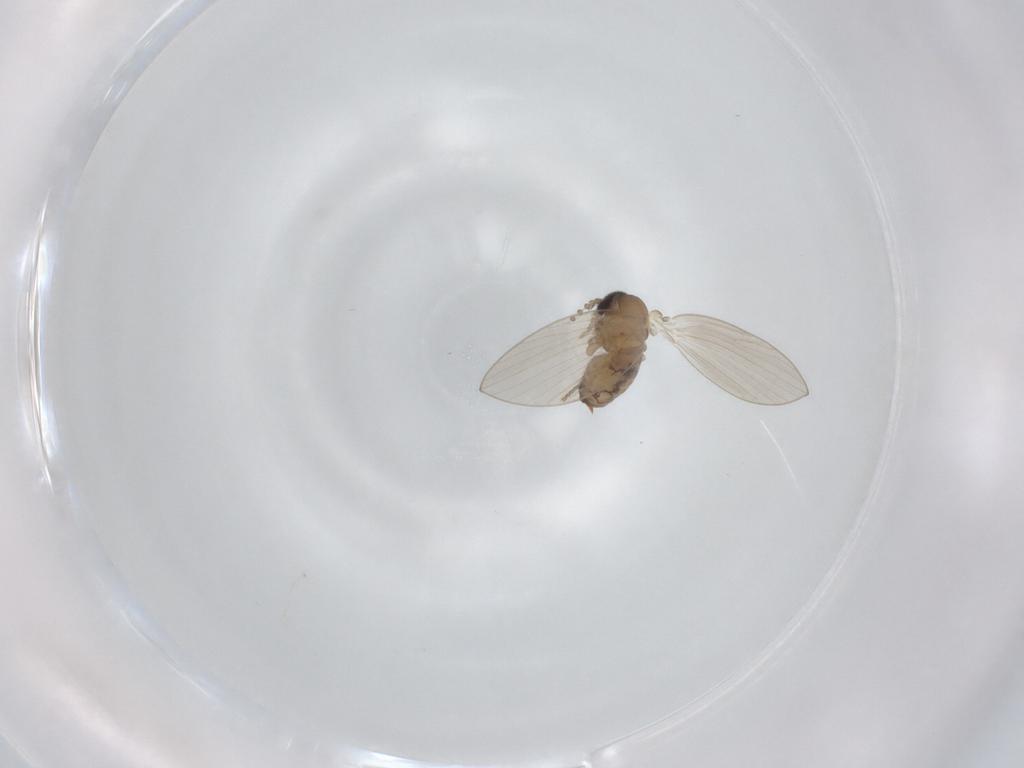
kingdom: Animalia
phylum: Arthropoda
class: Insecta
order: Diptera
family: Psychodidae
